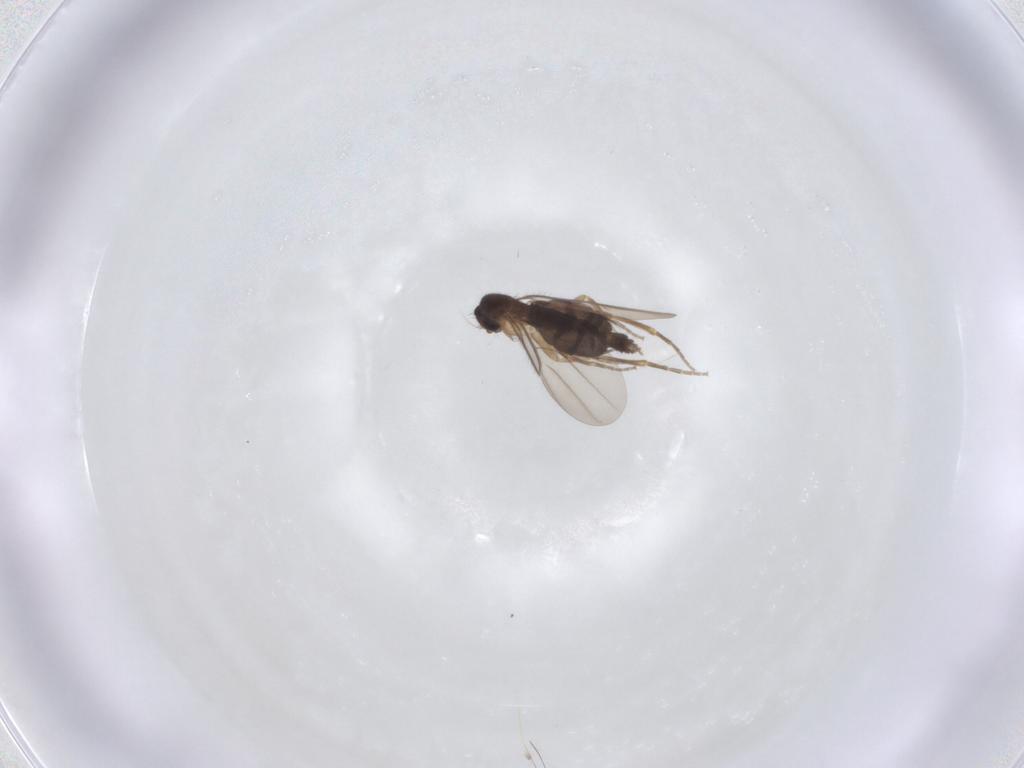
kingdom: Animalia
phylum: Arthropoda
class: Insecta
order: Diptera
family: Phoridae
